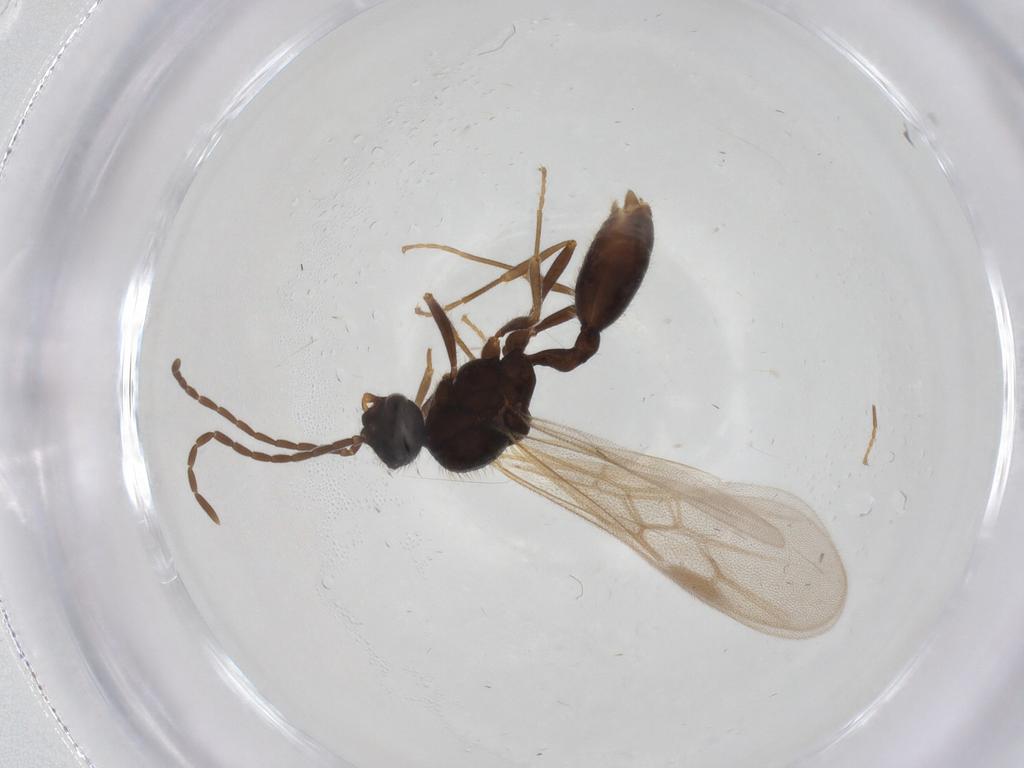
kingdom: Animalia
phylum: Arthropoda
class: Insecta
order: Hymenoptera
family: Formicidae
